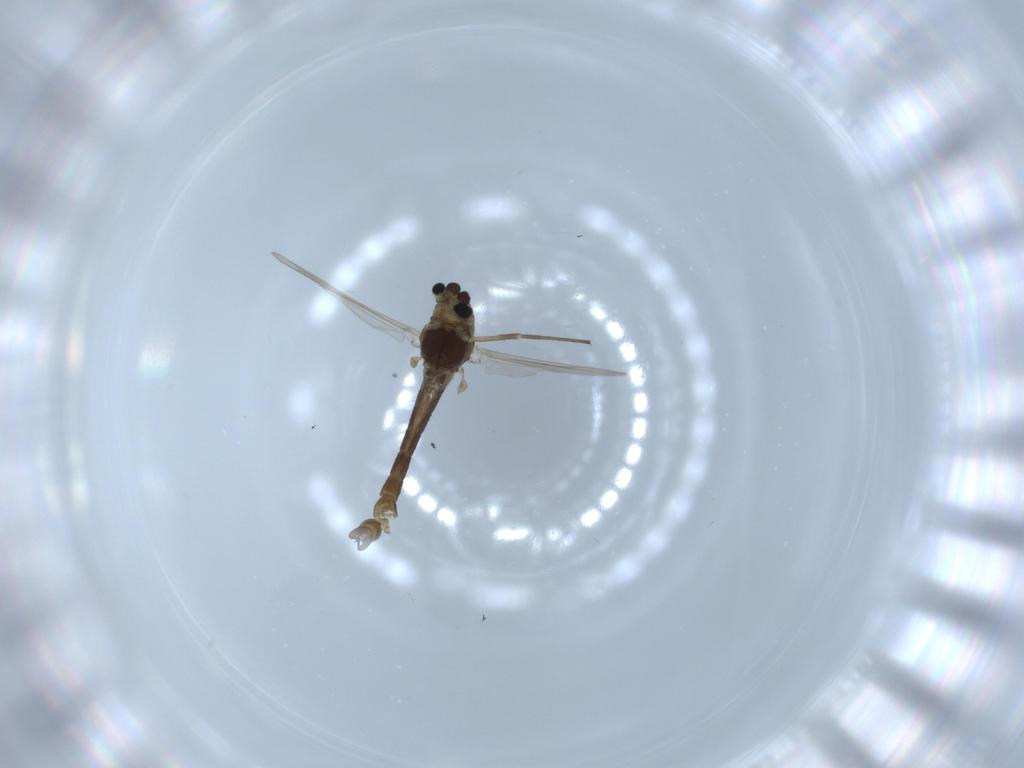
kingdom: Animalia
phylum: Arthropoda
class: Insecta
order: Diptera
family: Chironomidae
